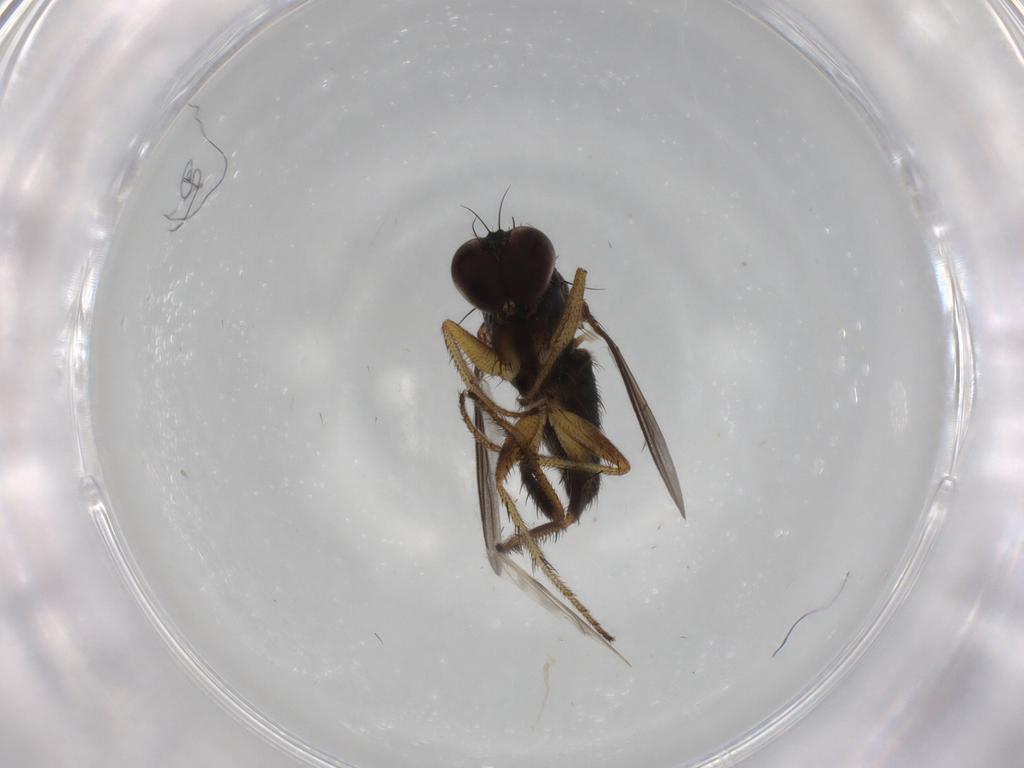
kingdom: Animalia
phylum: Arthropoda
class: Insecta
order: Diptera
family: Dolichopodidae
